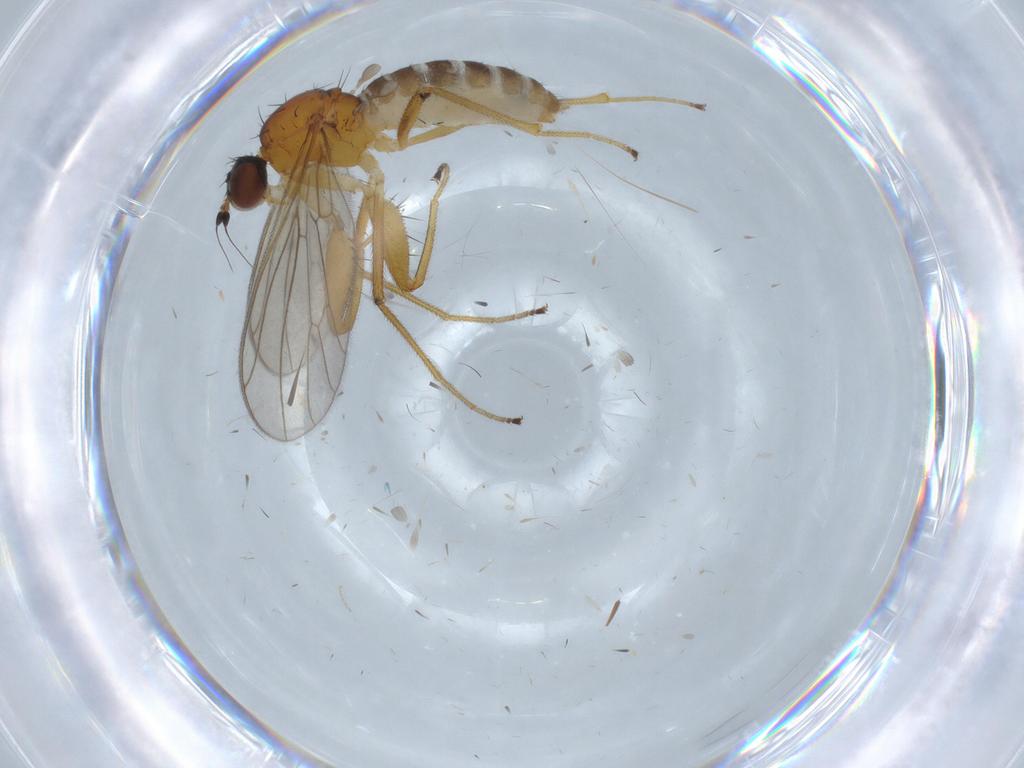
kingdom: Animalia
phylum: Arthropoda
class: Insecta
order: Diptera
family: Empididae
